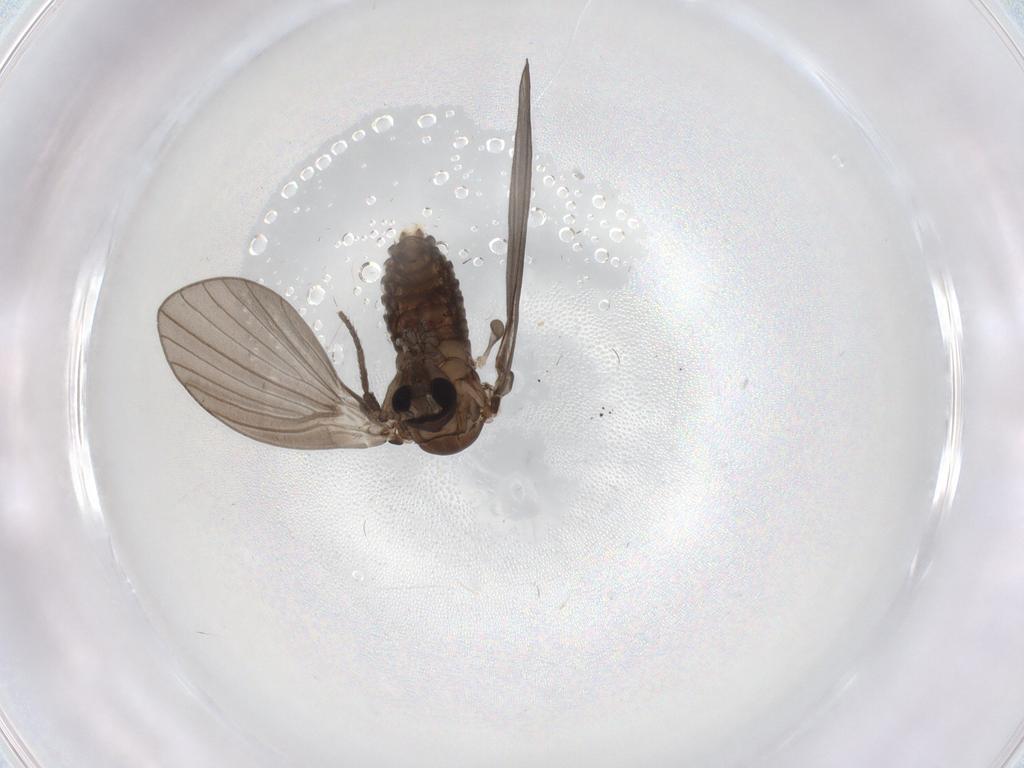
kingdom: Animalia
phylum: Arthropoda
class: Insecta
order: Diptera
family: Psychodidae
